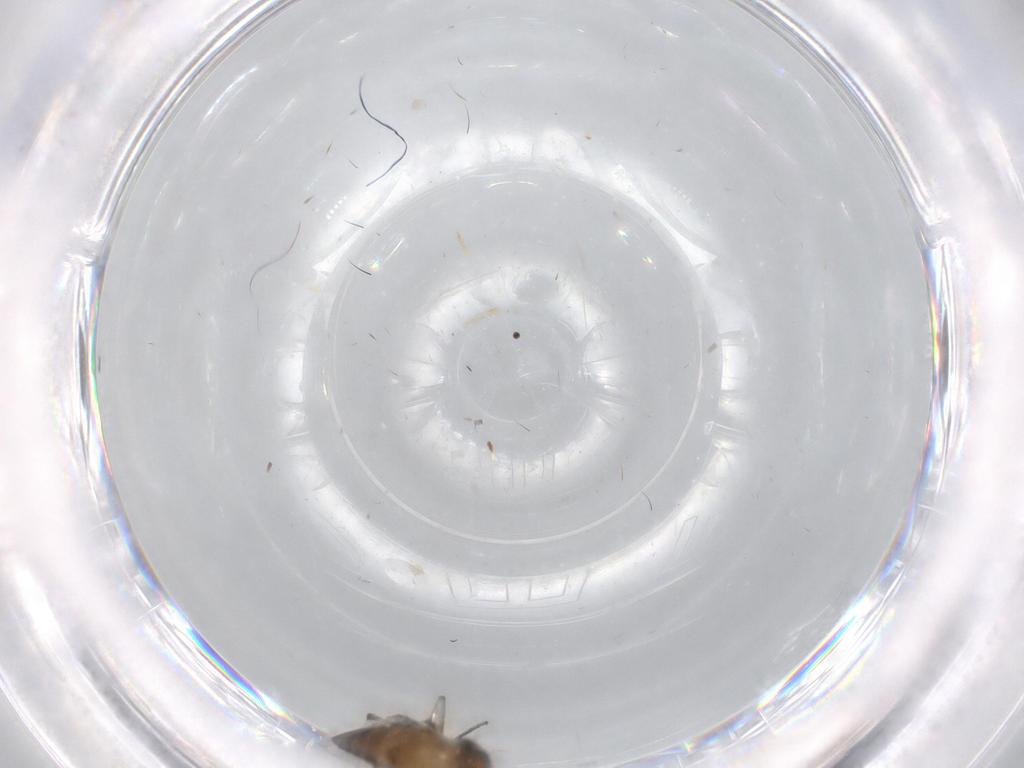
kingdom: Animalia
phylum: Arthropoda
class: Insecta
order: Diptera
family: Sciaridae
